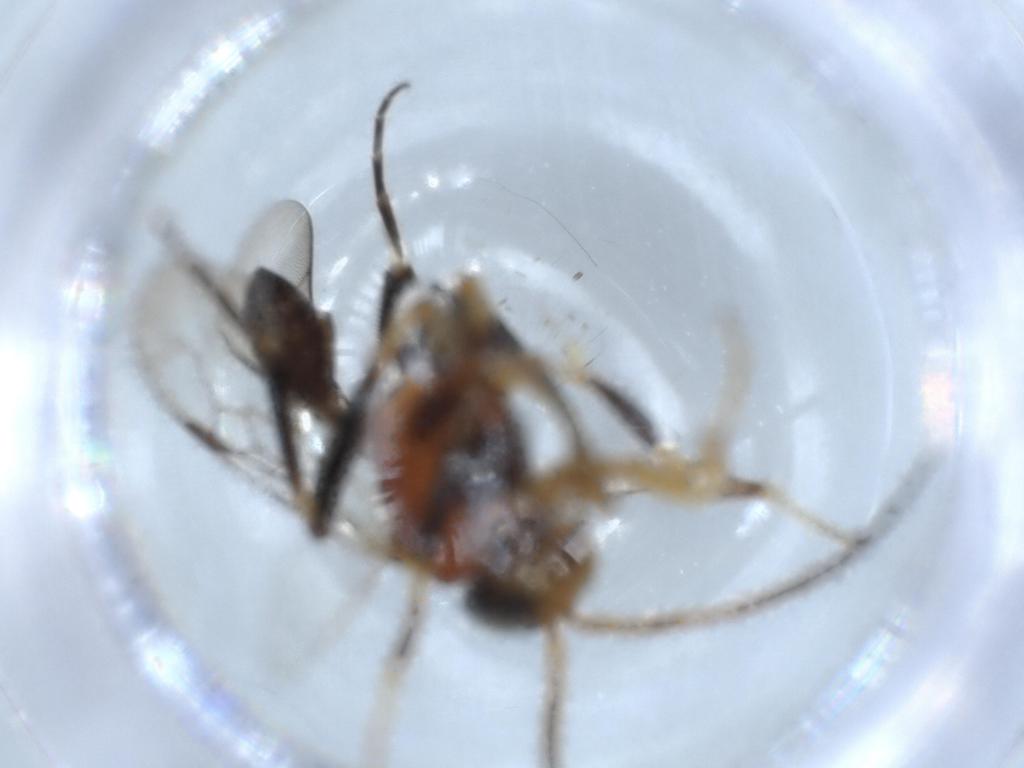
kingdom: Animalia
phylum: Arthropoda
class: Insecta
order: Hymenoptera
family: Evaniidae
